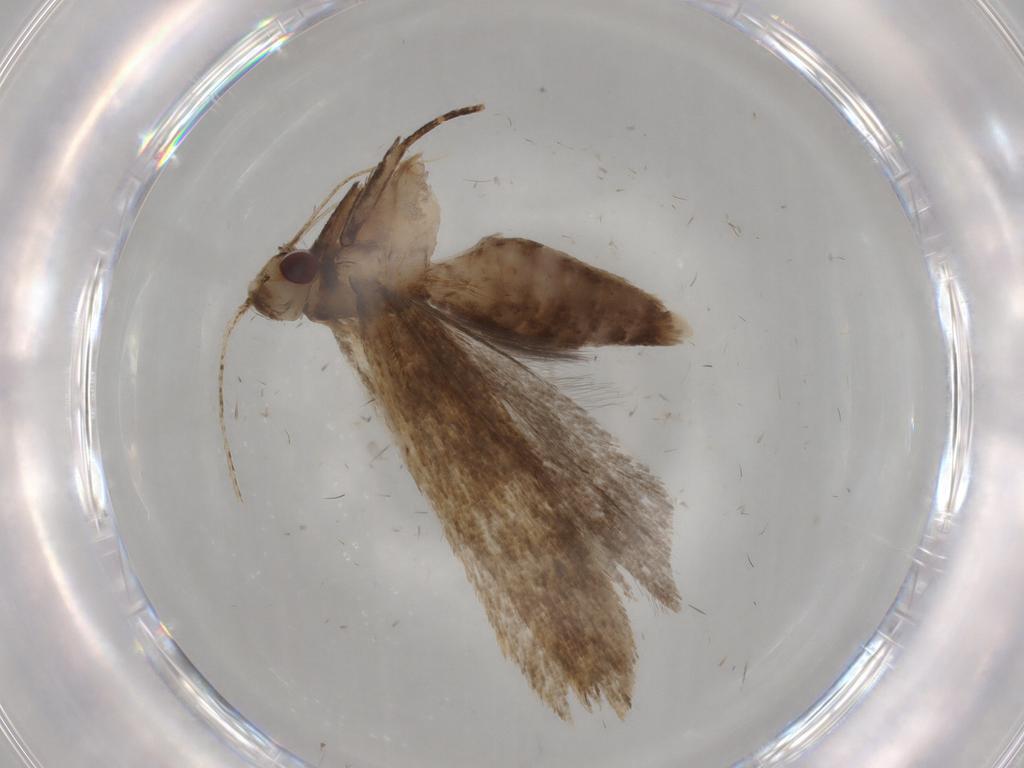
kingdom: Animalia
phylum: Arthropoda
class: Insecta
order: Lepidoptera
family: Gelechiidae
